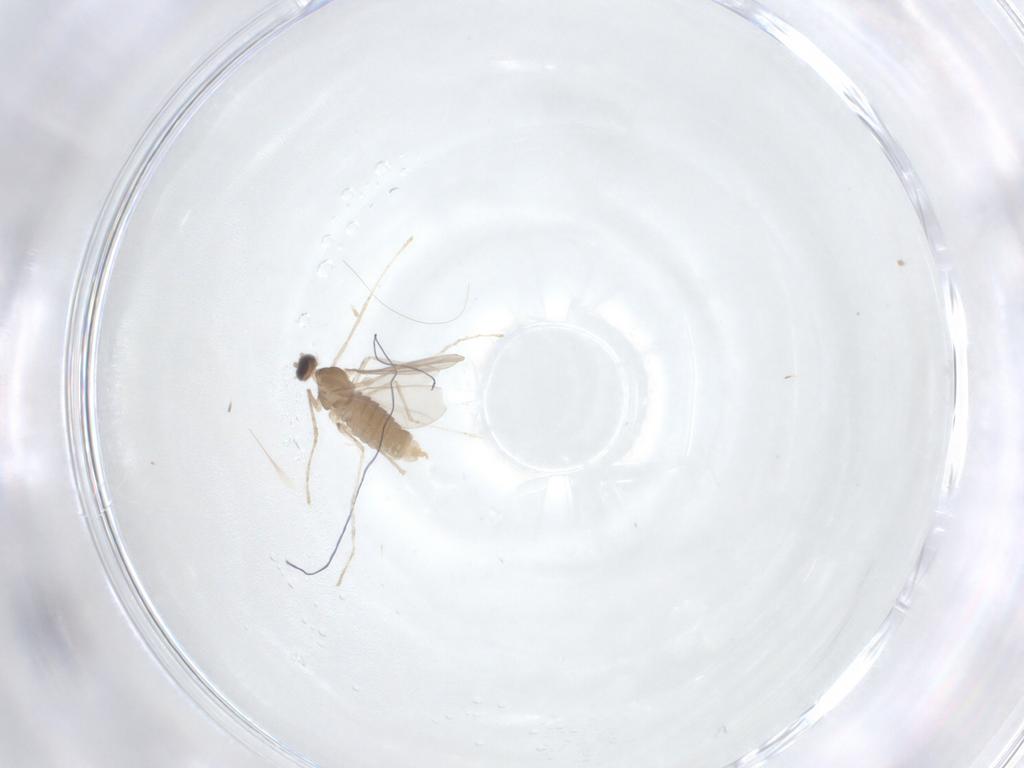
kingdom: Animalia
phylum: Arthropoda
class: Insecta
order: Diptera
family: Cecidomyiidae
